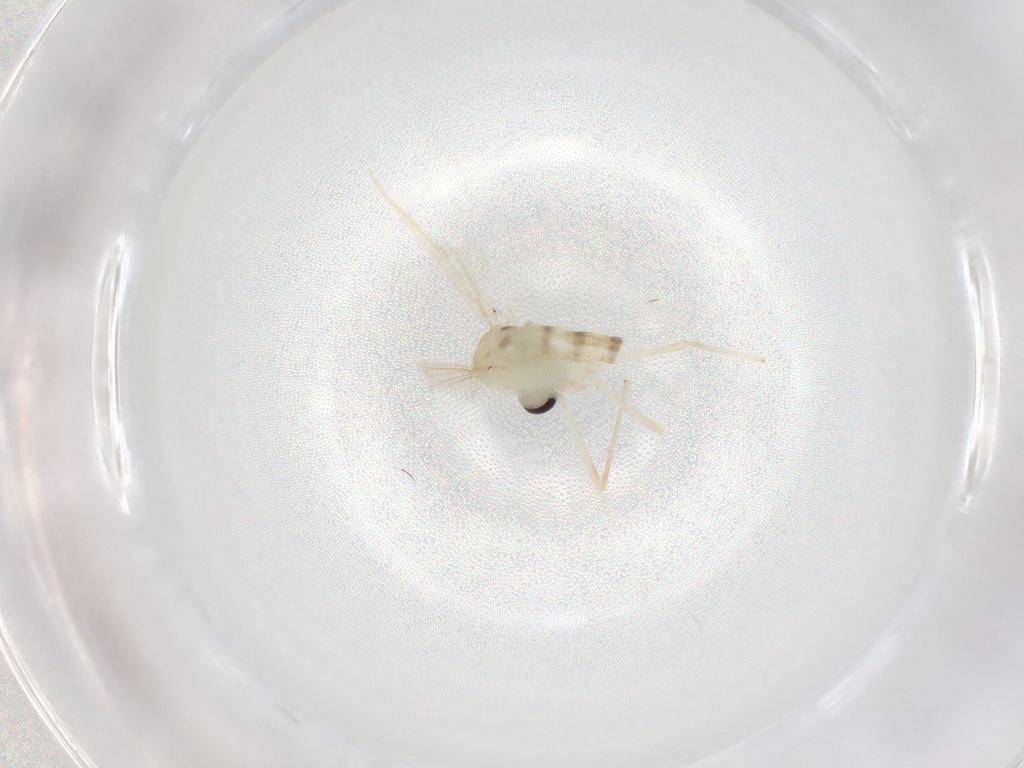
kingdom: Animalia
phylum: Arthropoda
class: Insecta
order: Diptera
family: Chironomidae
